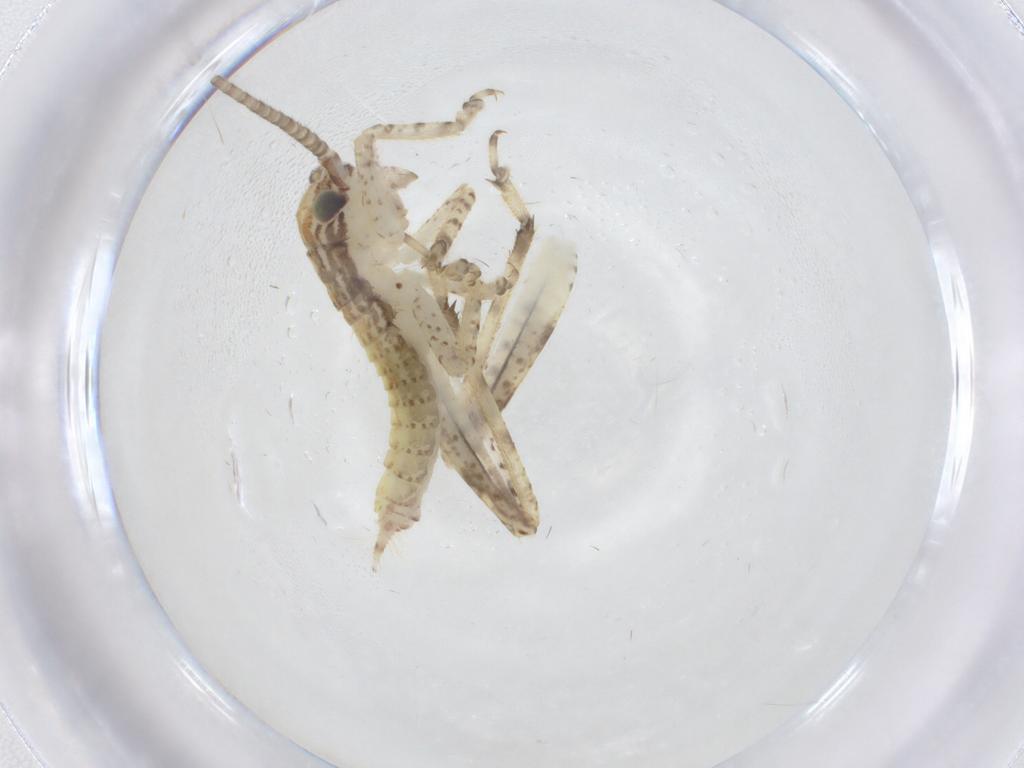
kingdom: Animalia
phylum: Arthropoda
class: Insecta
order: Orthoptera
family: Gryllidae
